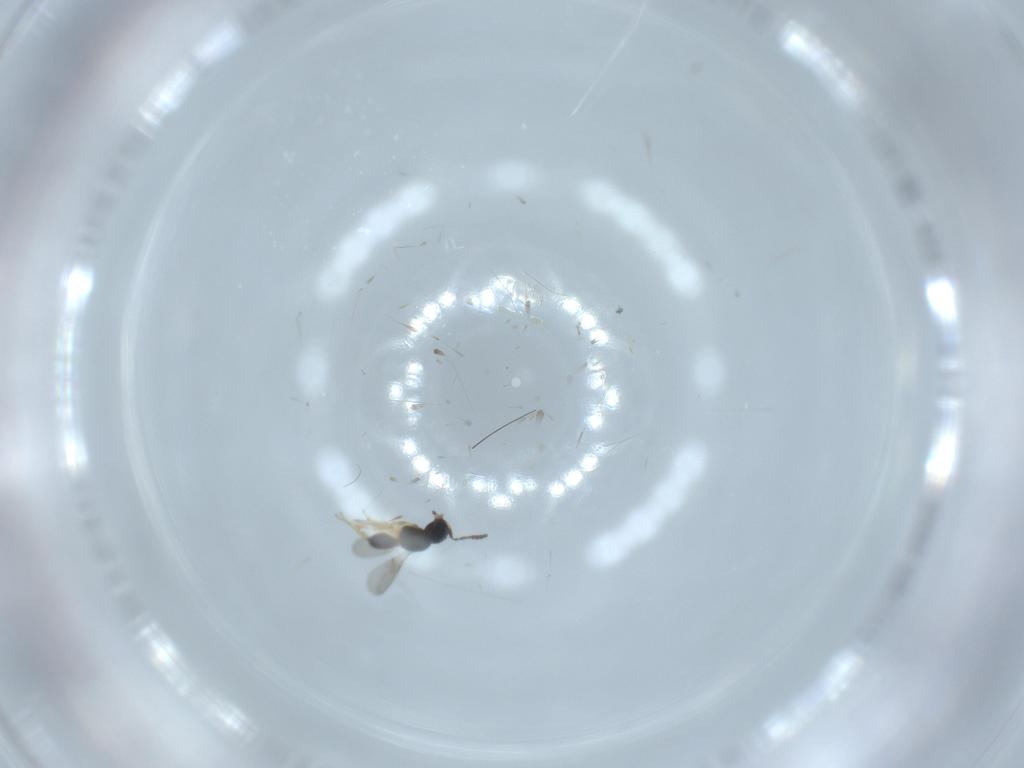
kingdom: Animalia
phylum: Arthropoda
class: Insecta
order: Hymenoptera
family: Scelionidae
